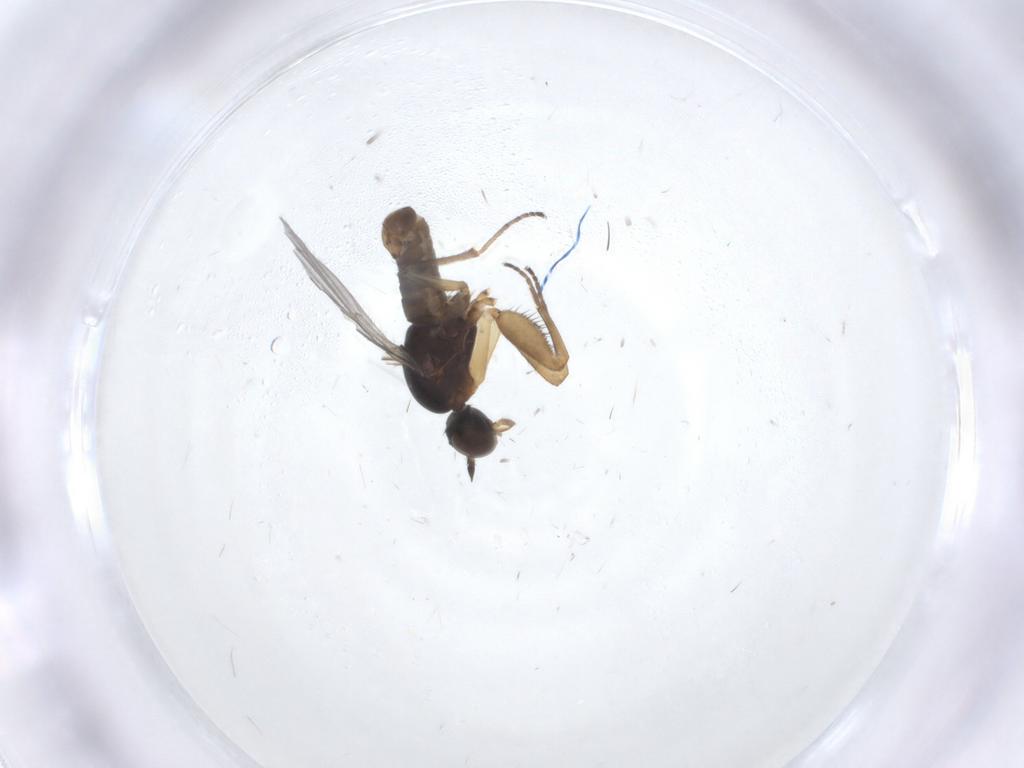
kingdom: Animalia
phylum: Arthropoda
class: Insecta
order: Diptera
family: Empididae
